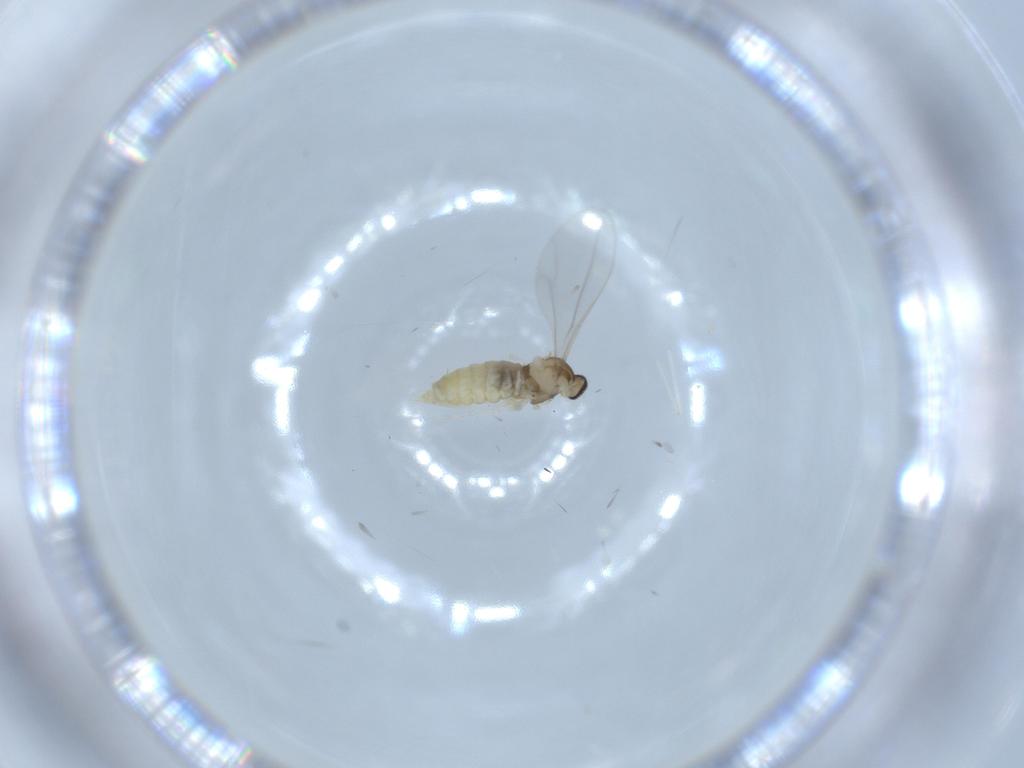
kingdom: Animalia
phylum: Arthropoda
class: Insecta
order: Diptera
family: Cecidomyiidae
